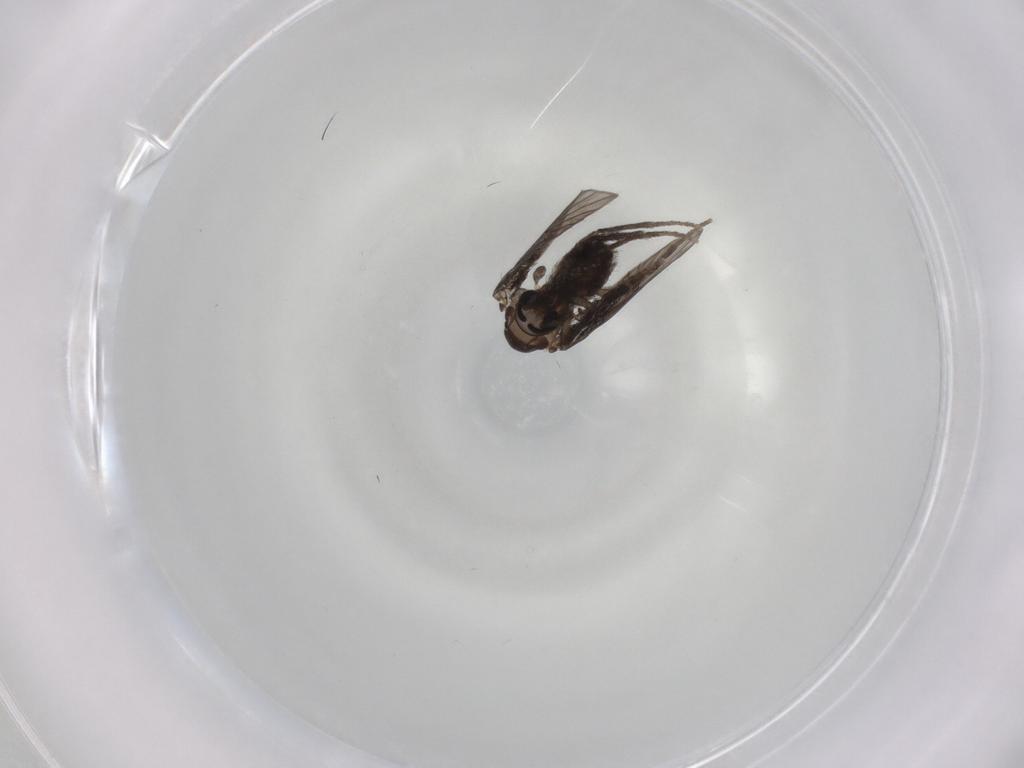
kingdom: Animalia
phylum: Arthropoda
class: Insecta
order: Diptera
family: Psychodidae
